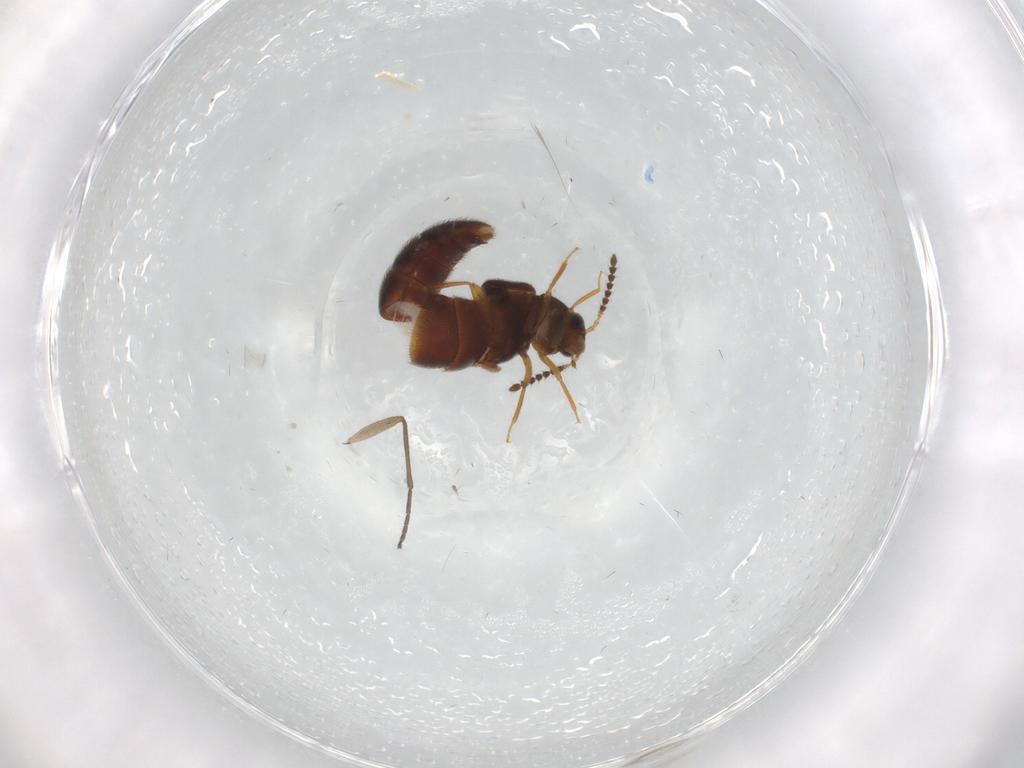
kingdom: Animalia
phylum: Arthropoda
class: Insecta
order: Coleoptera
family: Staphylinidae
